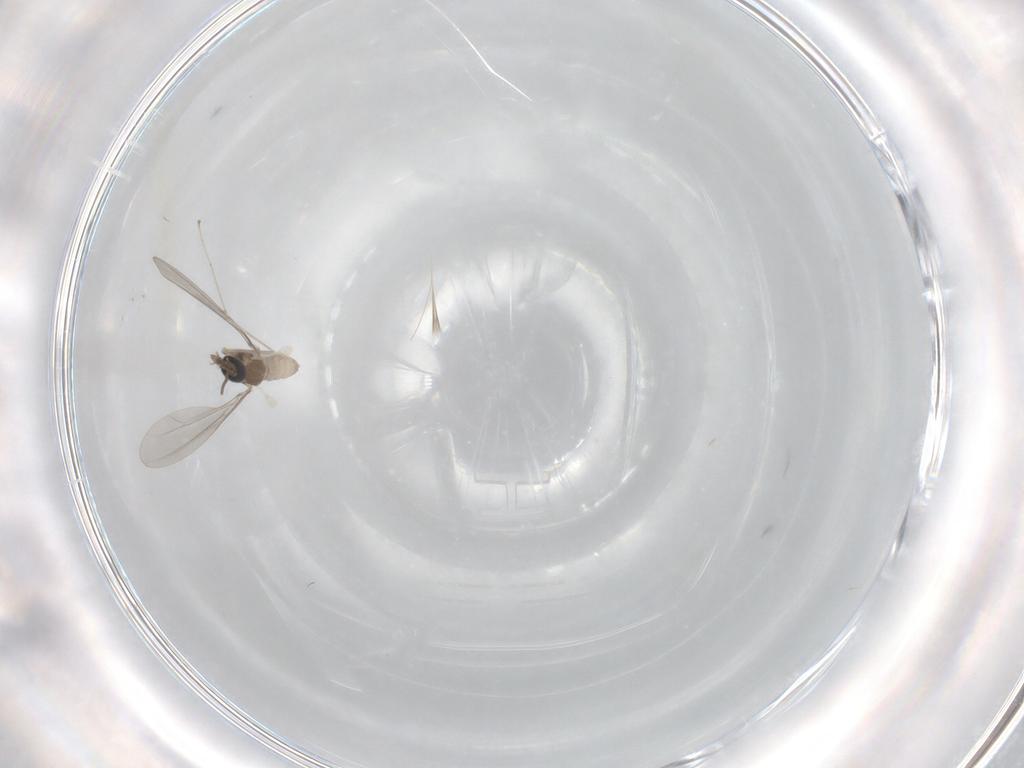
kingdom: Animalia
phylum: Arthropoda
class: Insecta
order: Diptera
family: Cecidomyiidae
